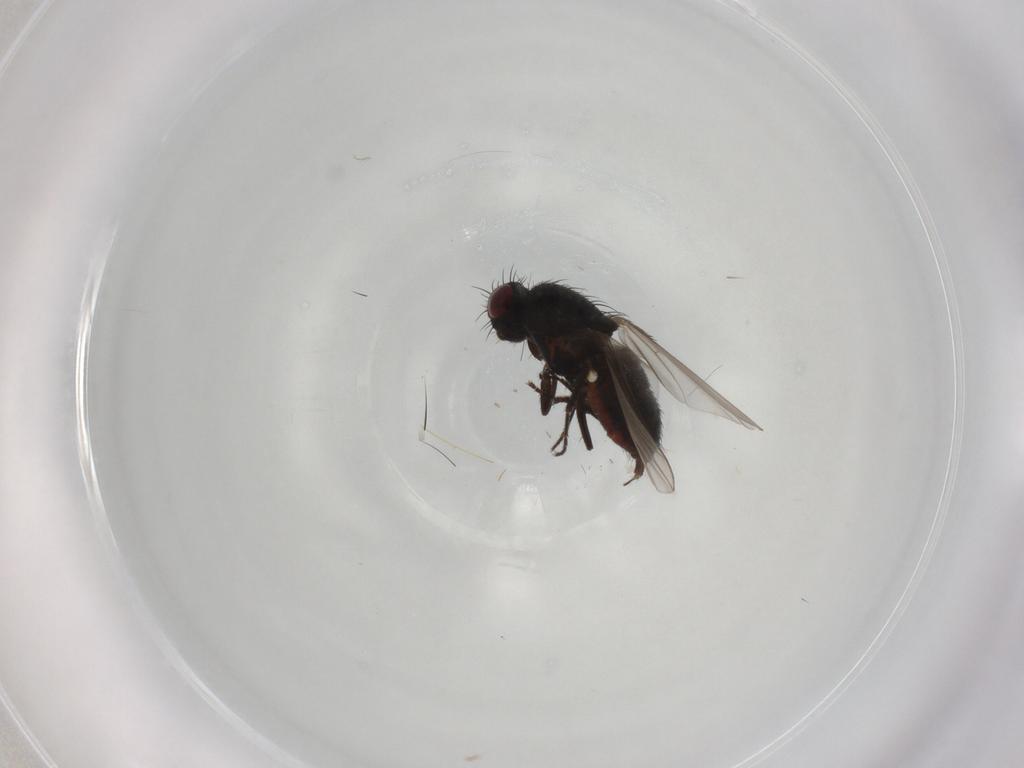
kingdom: Animalia
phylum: Arthropoda
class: Insecta
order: Diptera
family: Carnidae
